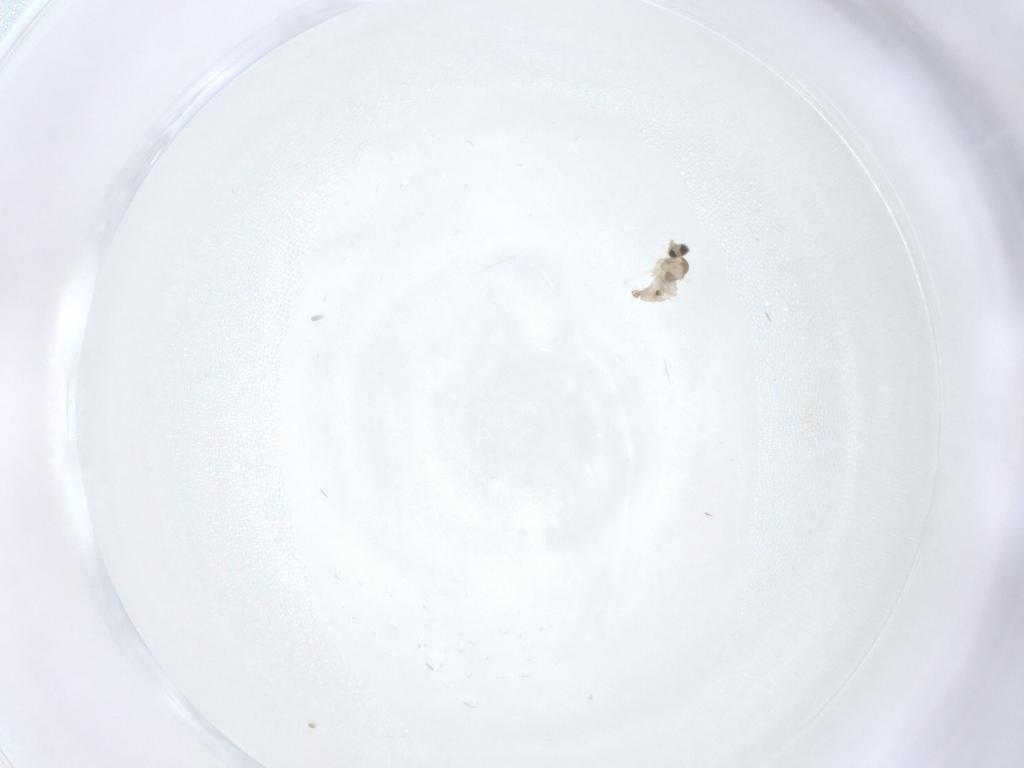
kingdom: Animalia
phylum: Arthropoda
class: Insecta
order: Diptera
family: Cecidomyiidae
